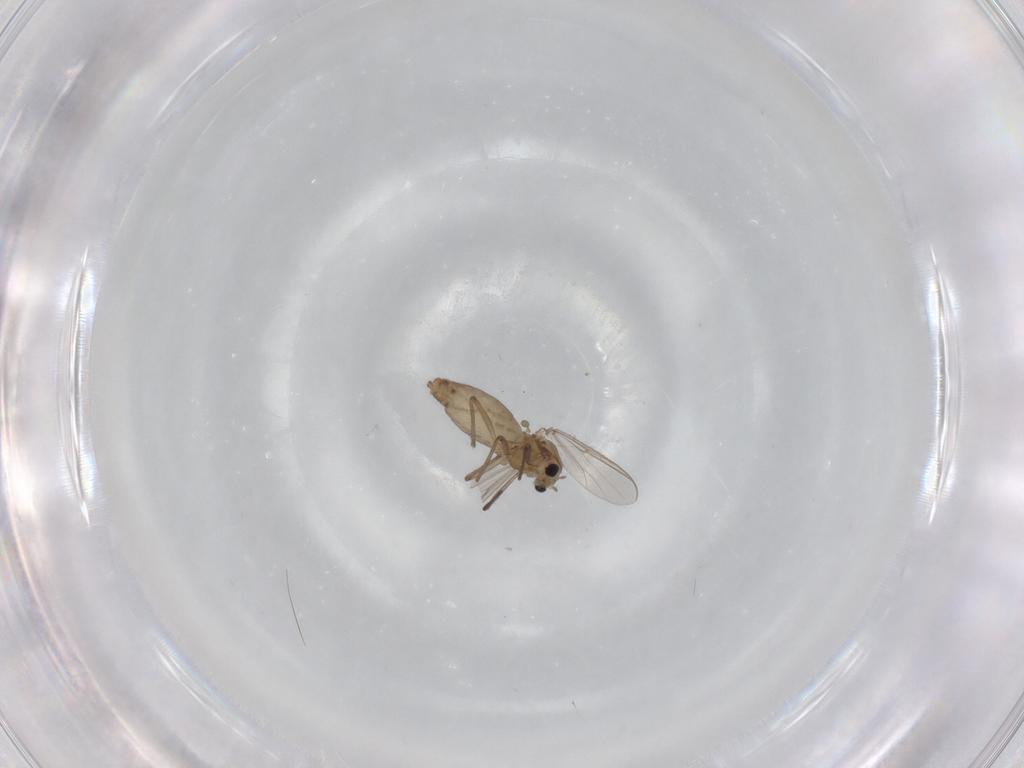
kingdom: Animalia
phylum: Arthropoda
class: Insecta
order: Diptera
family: Chironomidae
